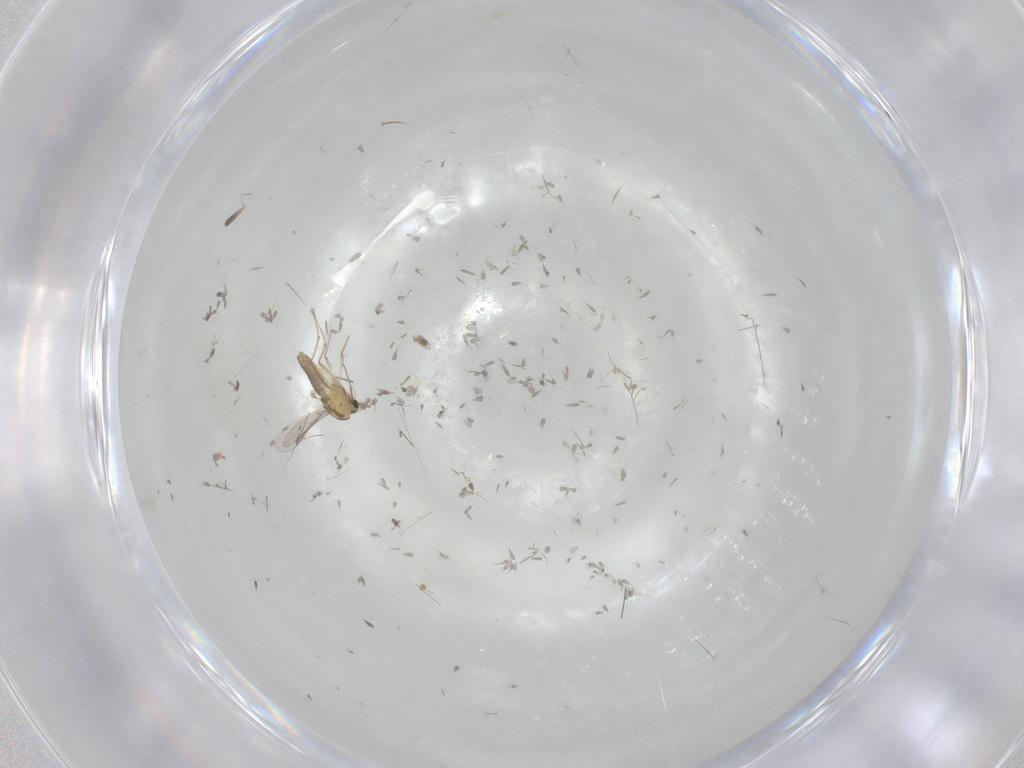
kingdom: Animalia
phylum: Arthropoda
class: Insecta
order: Diptera
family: Chironomidae
